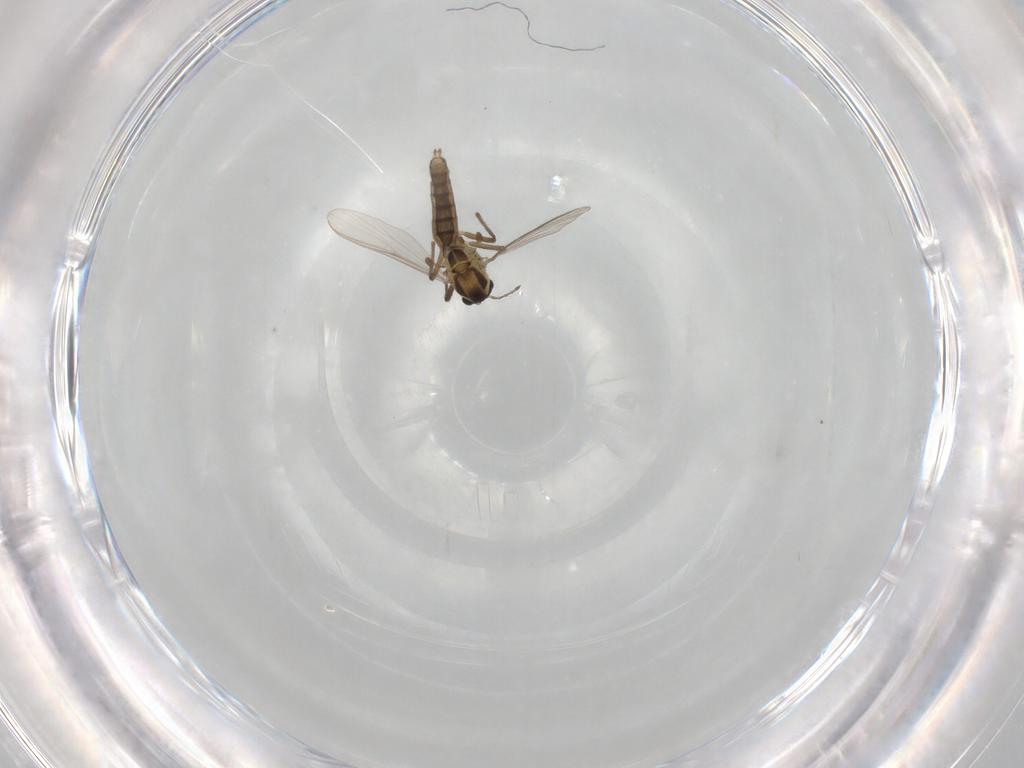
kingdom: Animalia
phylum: Arthropoda
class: Insecta
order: Diptera
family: Chironomidae
